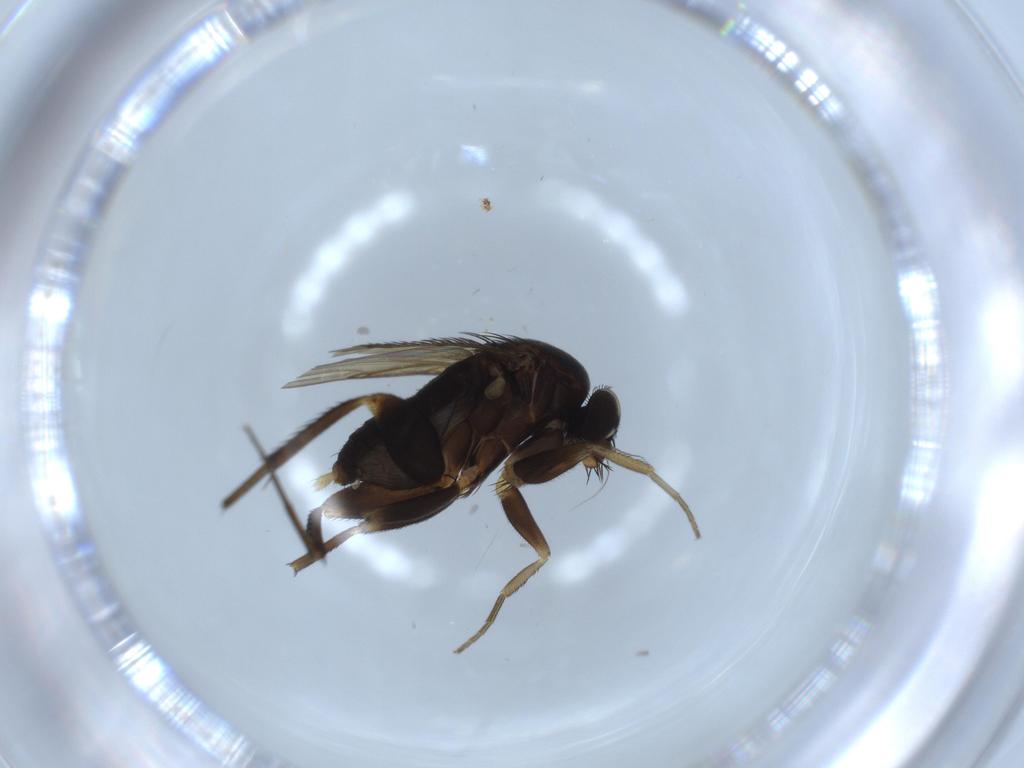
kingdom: Animalia
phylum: Arthropoda
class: Insecta
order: Diptera
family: Phoridae
